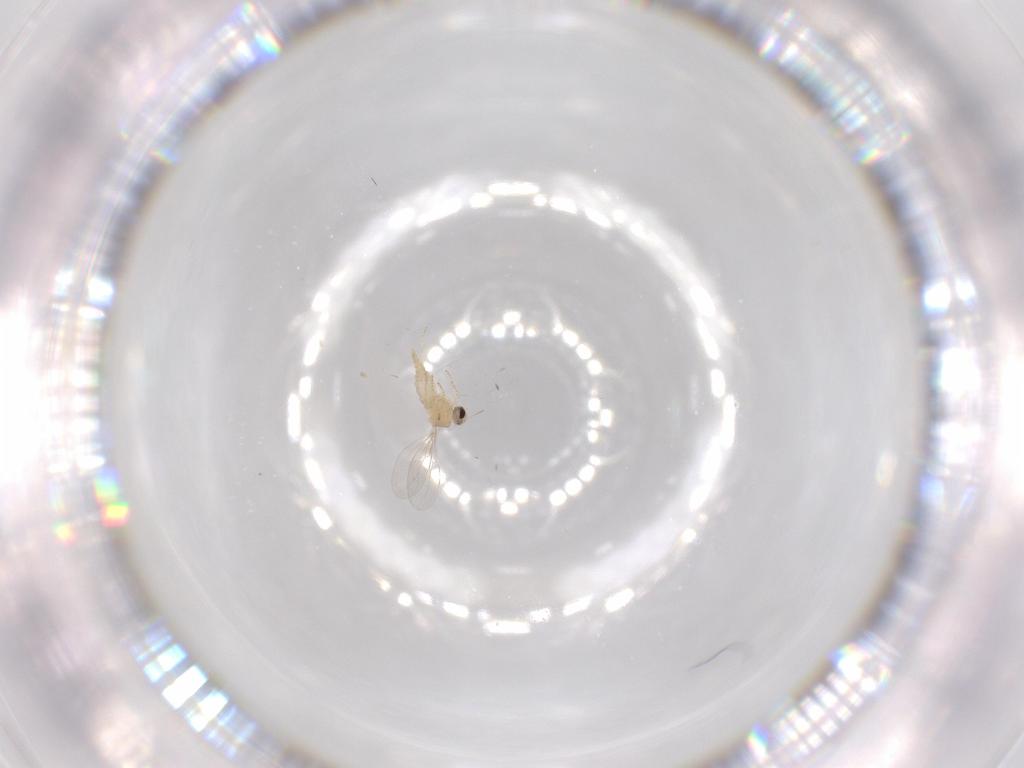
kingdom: Animalia
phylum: Arthropoda
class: Insecta
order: Diptera
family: Cecidomyiidae
